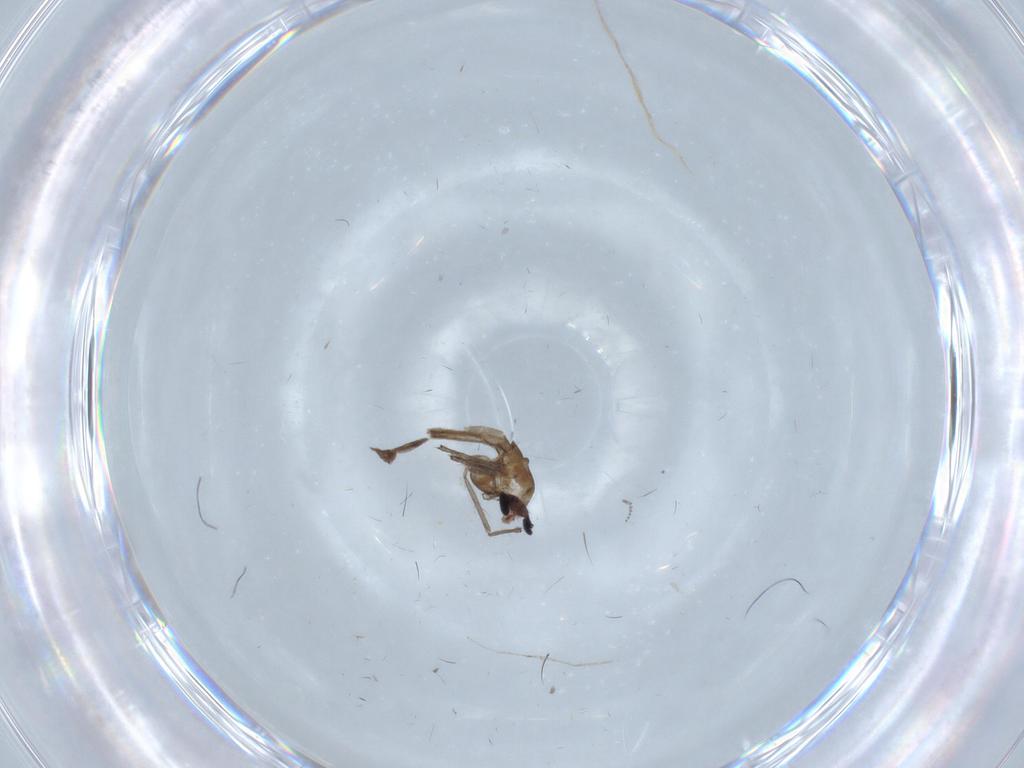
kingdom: Animalia
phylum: Arthropoda
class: Insecta
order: Diptera
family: Cecidomyiidae
